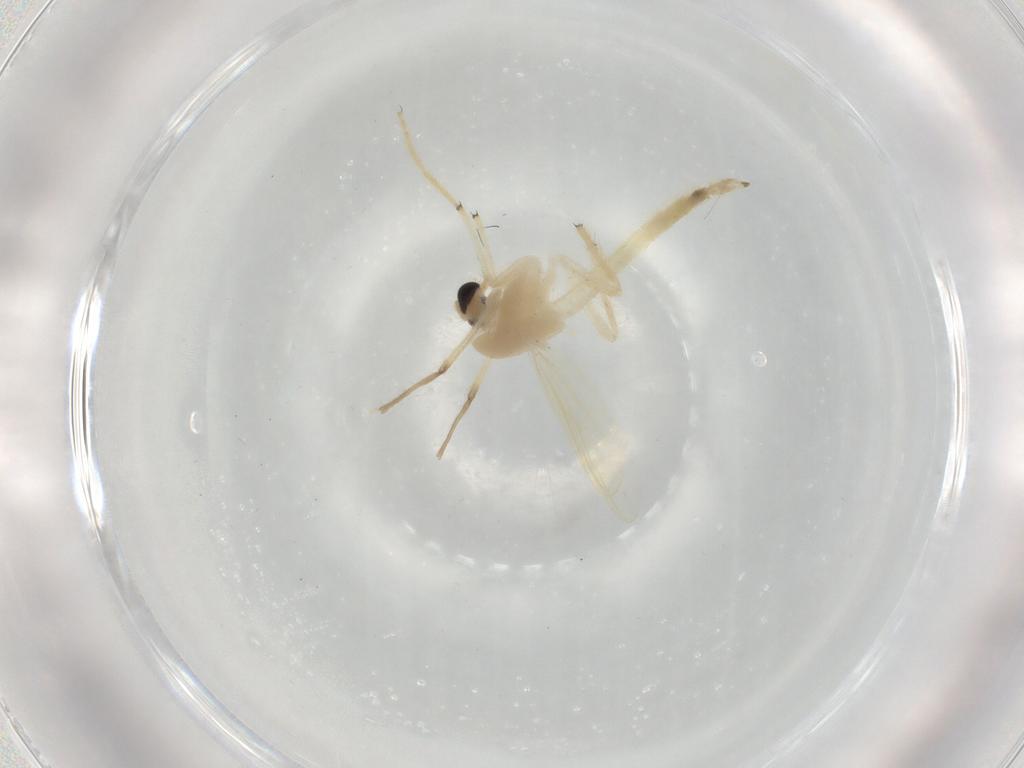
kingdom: Animalia
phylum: Arthropoda
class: Insecta
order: Diptera
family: Chironomidae
